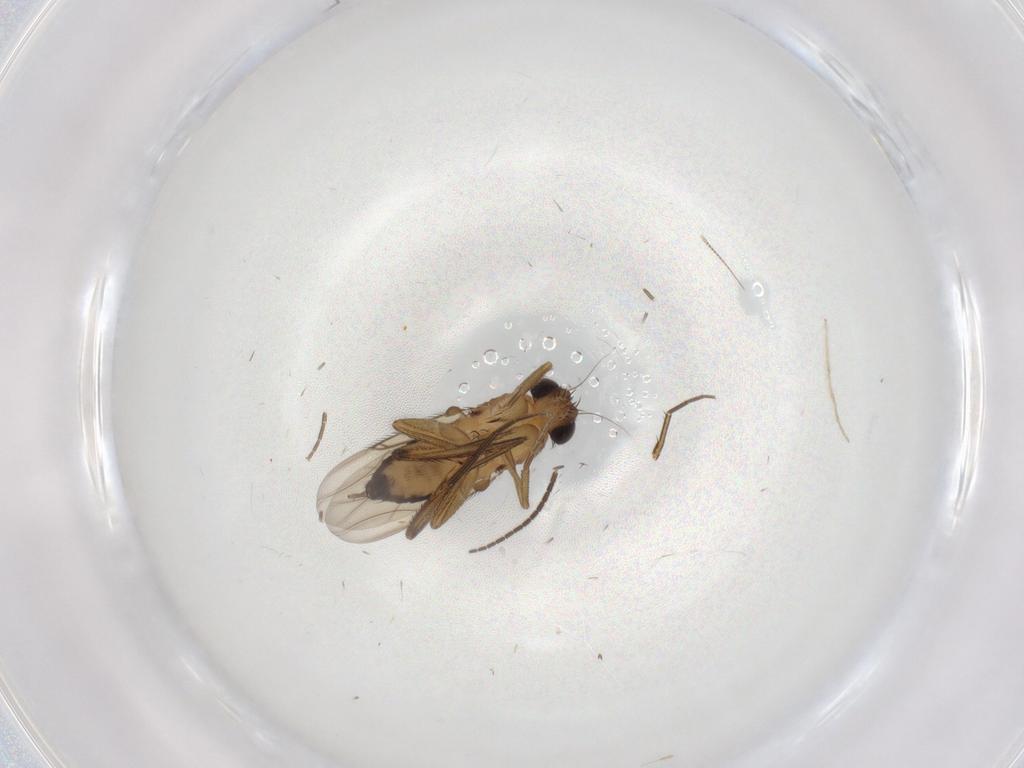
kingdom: Animalia
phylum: Arthropoda
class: Insecta
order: Diptera
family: Phoridae
